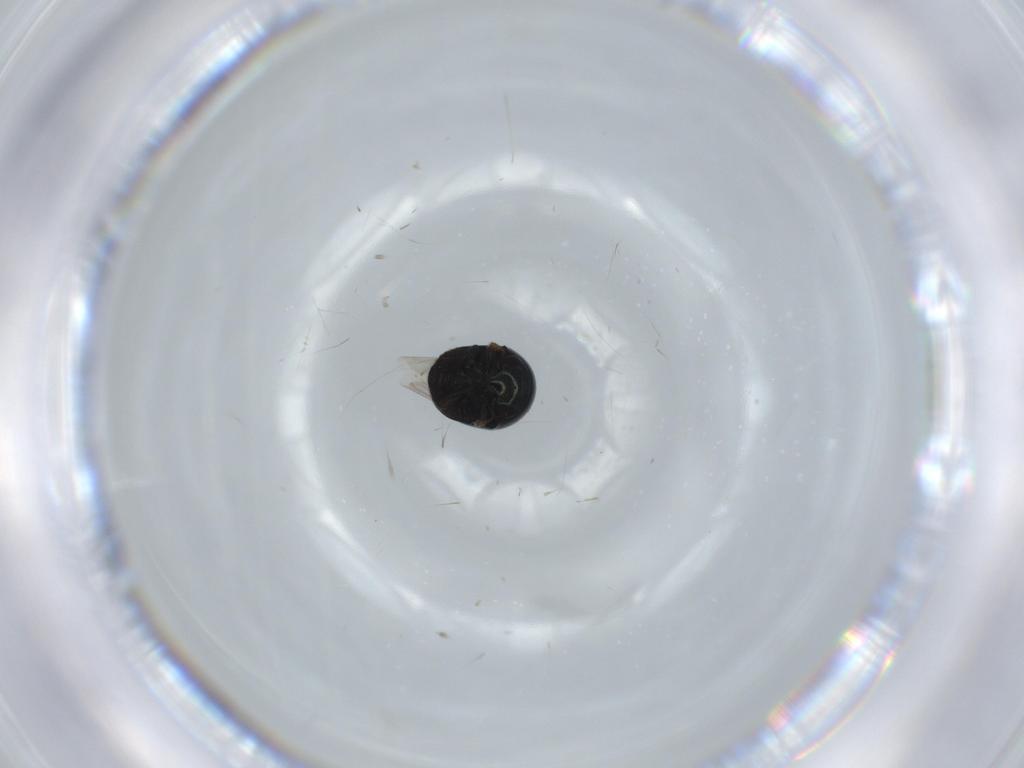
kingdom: Animalia
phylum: Arthropoda
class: Insecta
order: Coleoptera
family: Cybocephalidae
